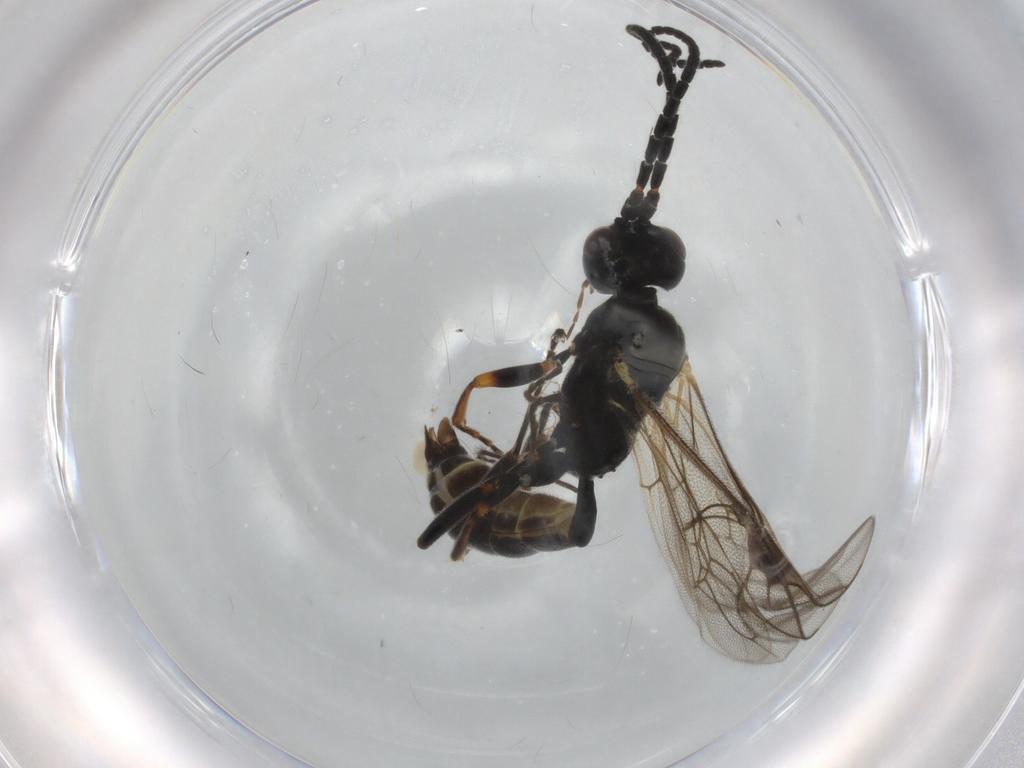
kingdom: Animalia
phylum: Arthropoda
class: Insecta
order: Hymenoptera
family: Ichneumonidae
